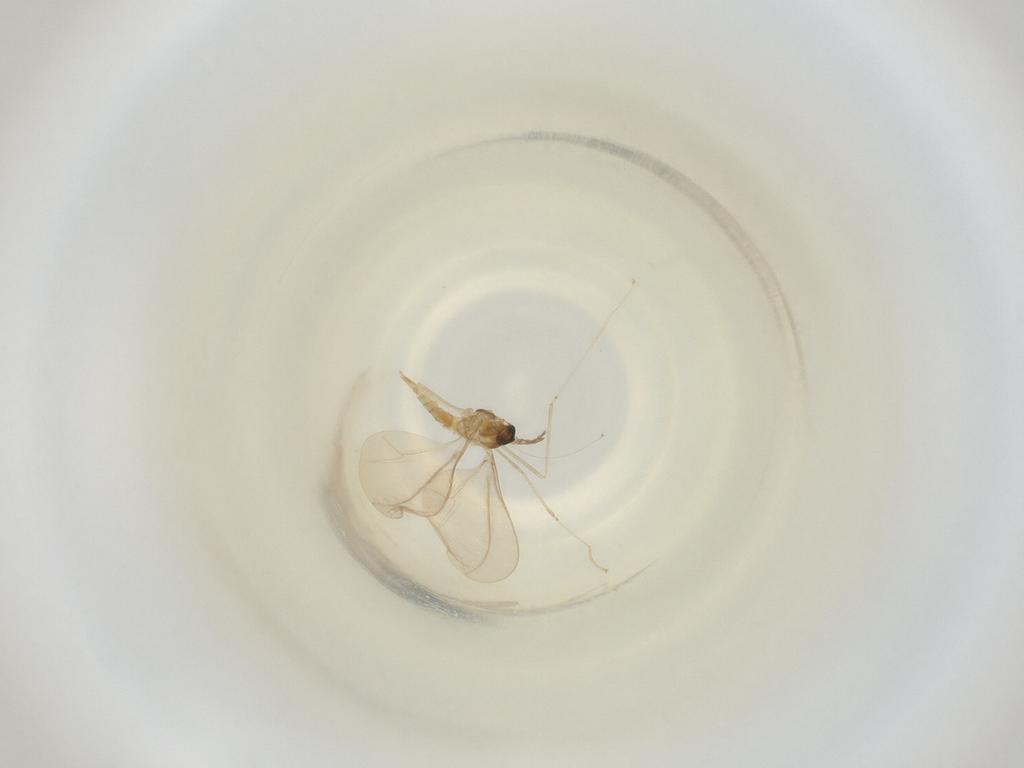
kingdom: Animalia
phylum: Arthropoda
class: Insecta
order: Diptera
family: Cecidomyiidae
